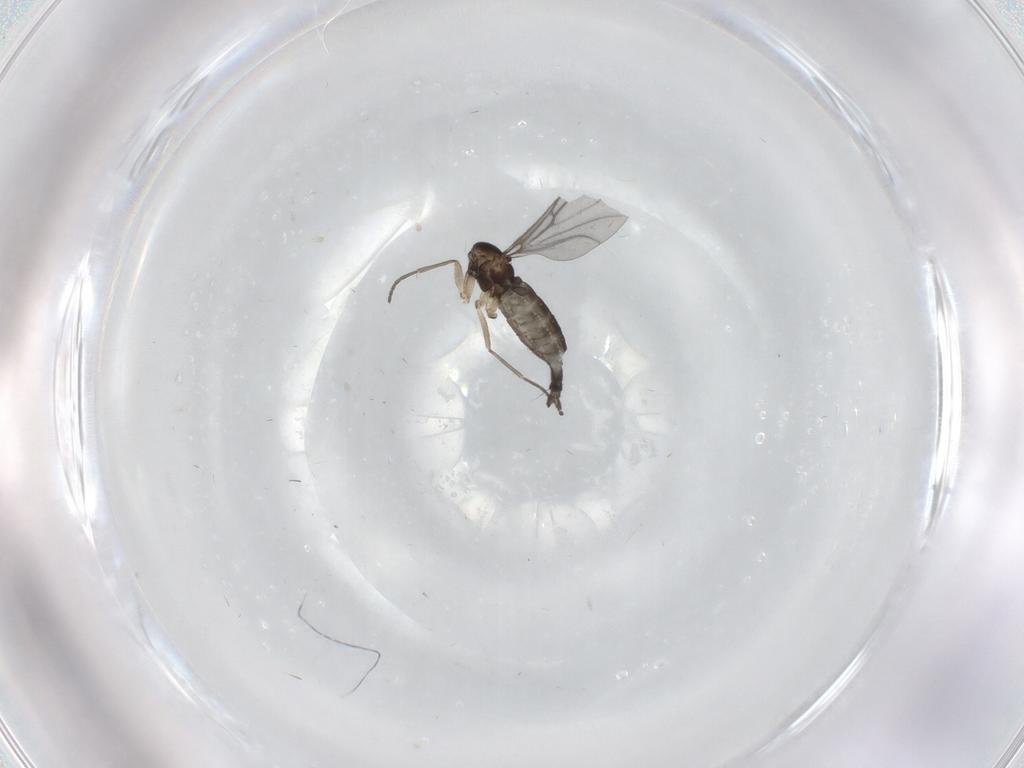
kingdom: Animalia
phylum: Arthropoda
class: Insecta
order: Diptera
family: Sciaridae
